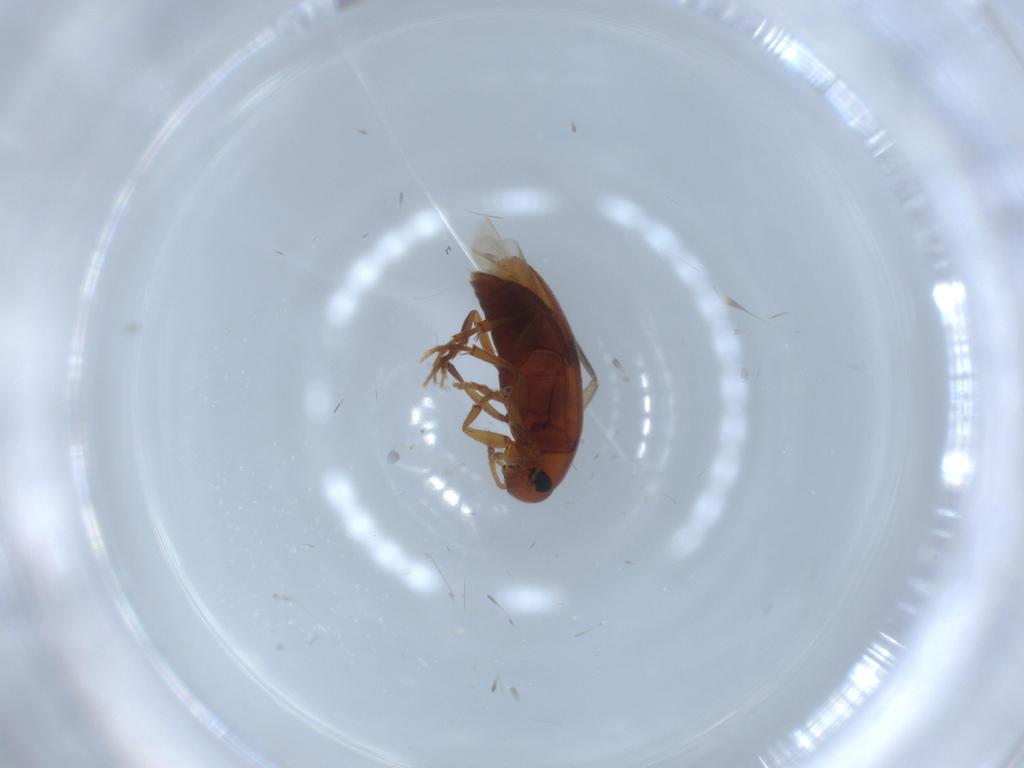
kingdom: Animalia
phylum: Arthropoda
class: Insecta
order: Coleoptera
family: Scraptiidae
